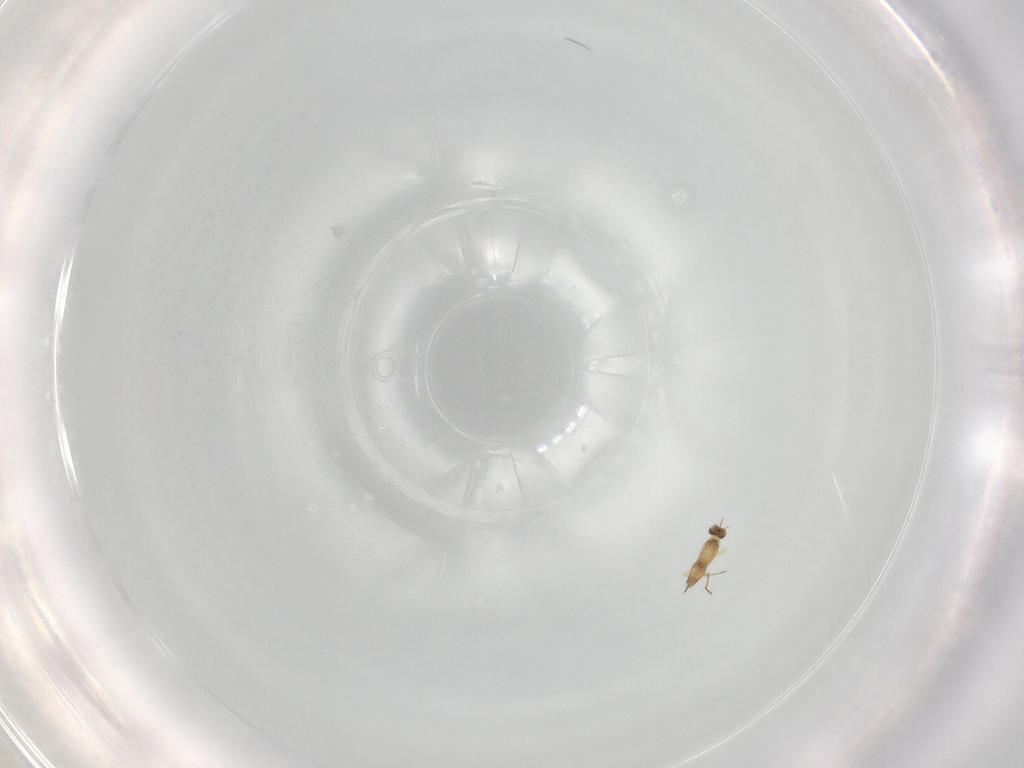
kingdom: Animalia
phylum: Arthropoda
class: Insecta
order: Hymenoptera
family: Mymaridae
